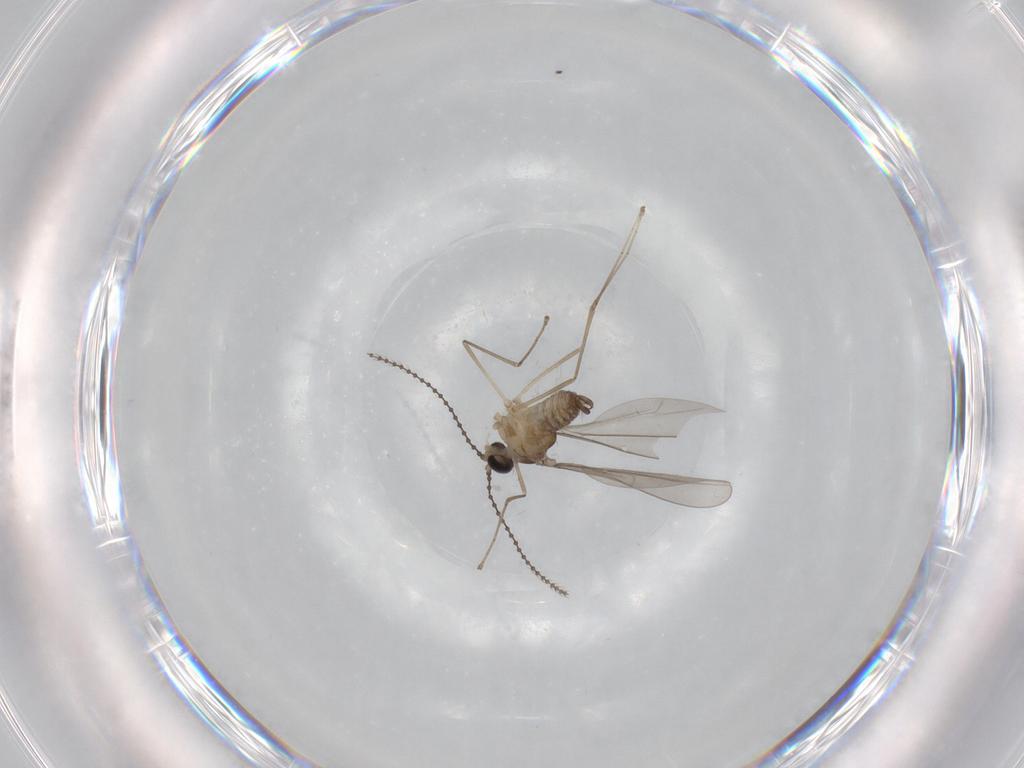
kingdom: Animalia
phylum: Arthropoda
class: Insecta
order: Diptera
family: Cecidomyiidae
